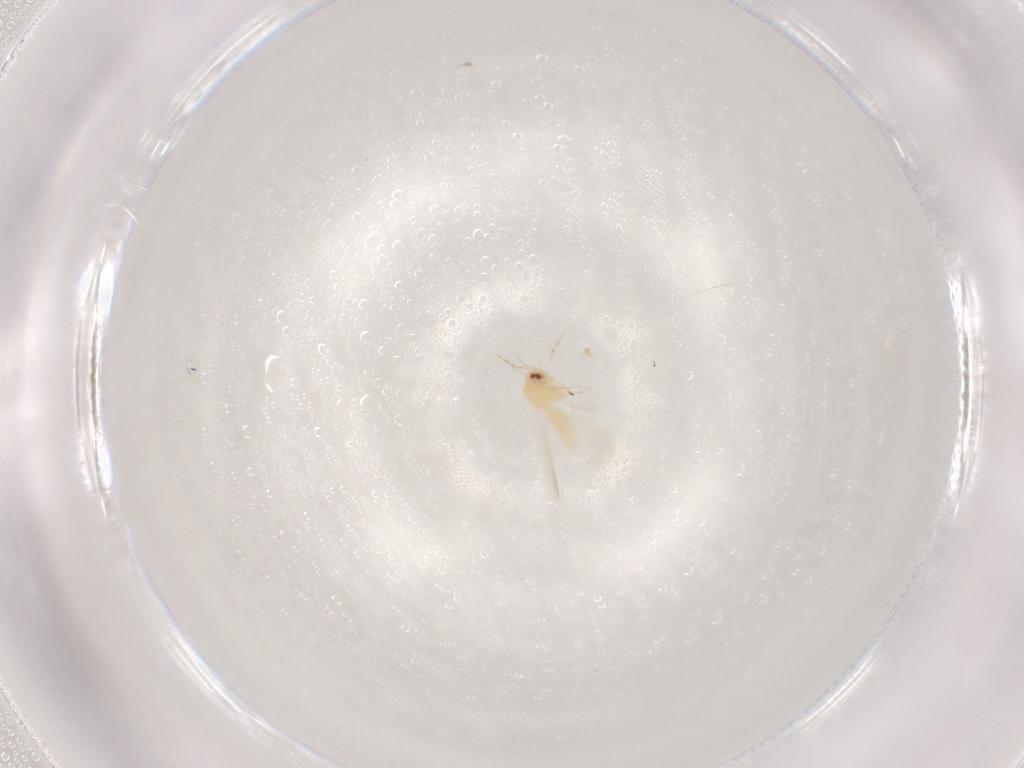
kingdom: Animalia
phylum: Arthropoda
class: Insecta
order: Hemiptera
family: Aleyrodidae
